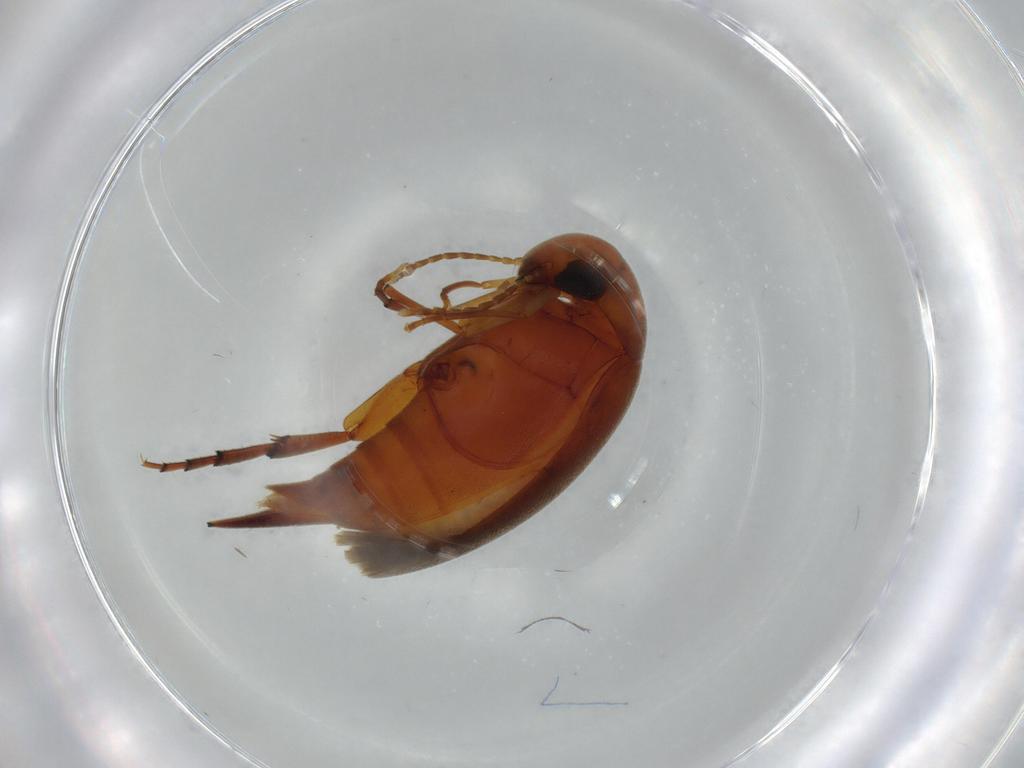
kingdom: Animalia
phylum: Arthropoda
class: Insecta
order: Coleoptera
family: Mordellidae
